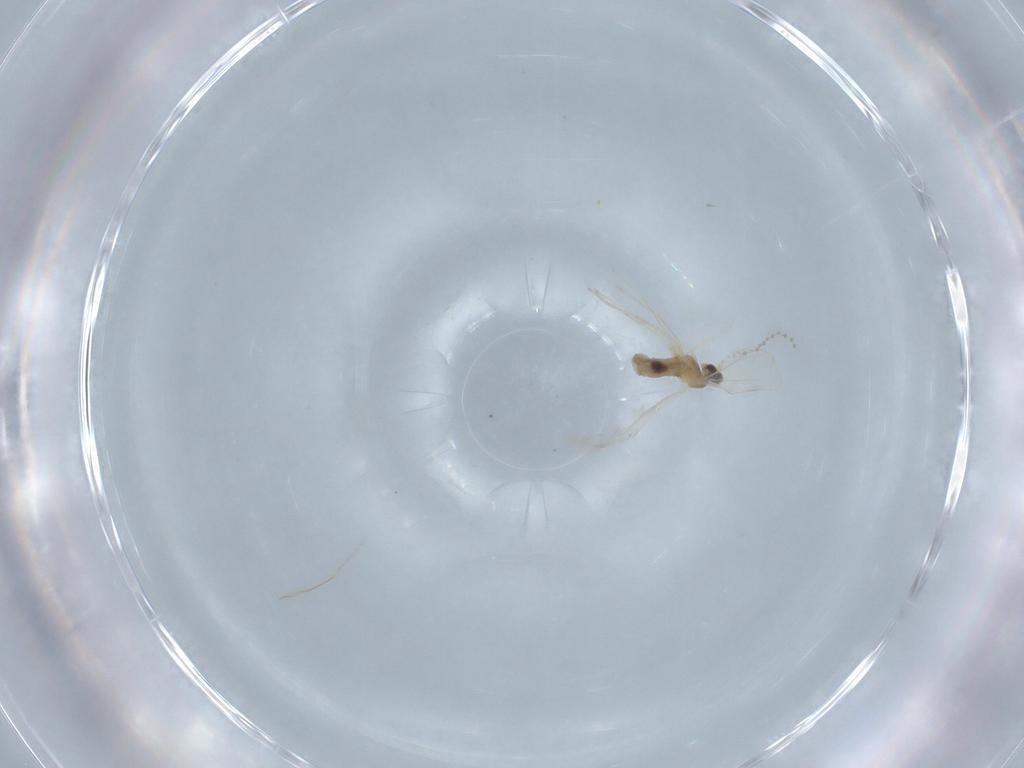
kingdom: Animalia
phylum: Arthropoda
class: Insecta
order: Diptera
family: Cecidomyiidae
